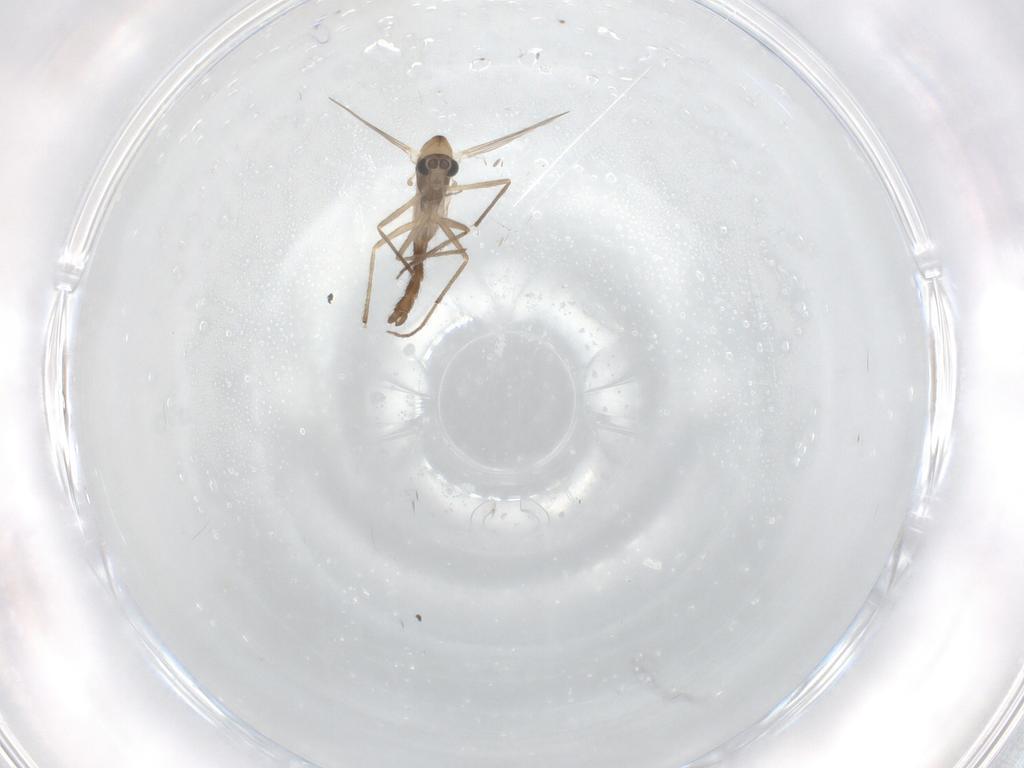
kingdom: Animalia
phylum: Arthropoda
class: Insecta
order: Diptera
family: Chironomidae
